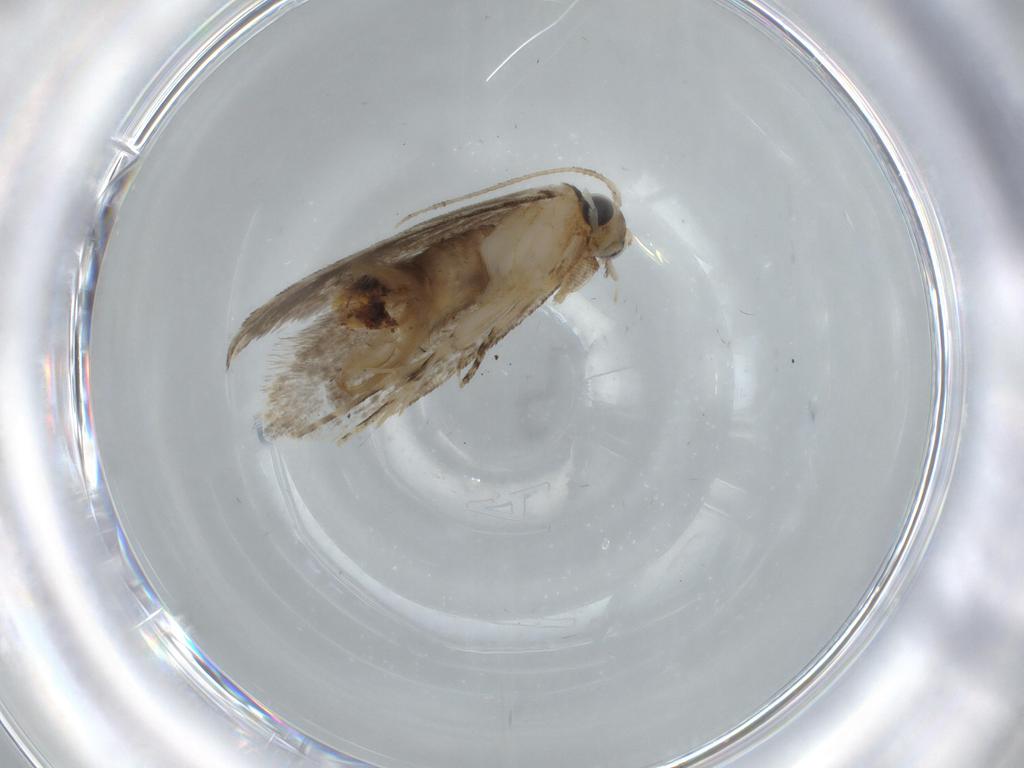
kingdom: Animalia
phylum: Arthropoda
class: Insecta
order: Lepidoptera
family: Tineidae
